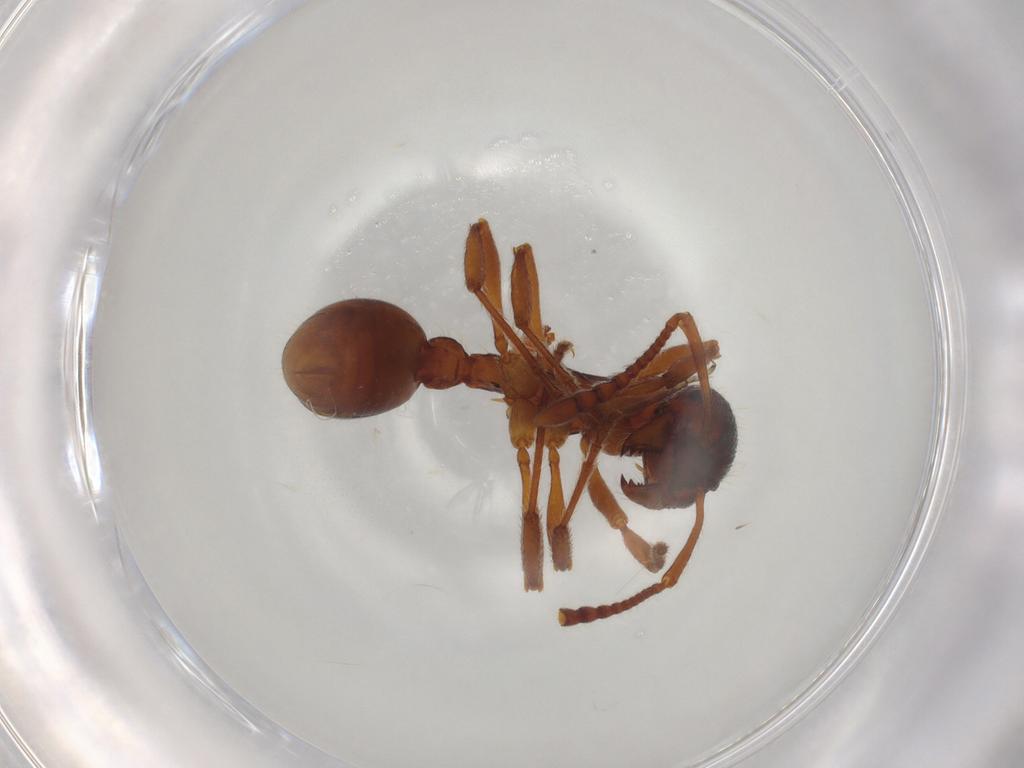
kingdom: Animalia
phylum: Arthropoda
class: Insecta
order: Hymenoptera
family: Formicidae
